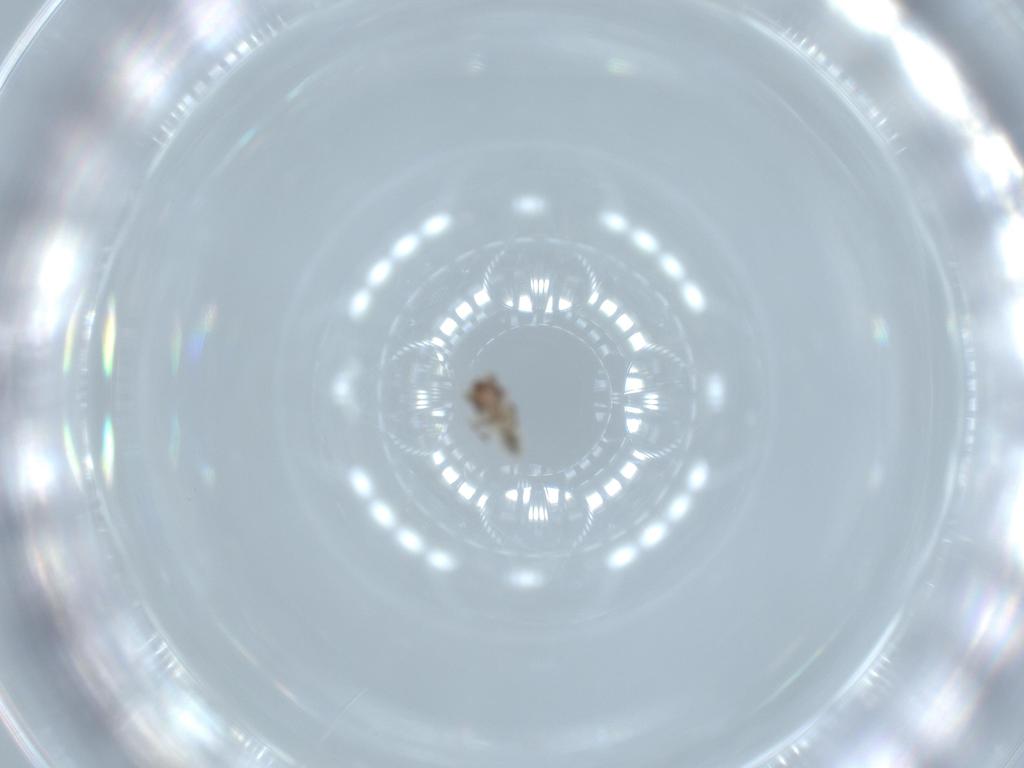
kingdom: Animalia
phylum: Arthropoda
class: Insecta
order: Psocodea
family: Lepidopsocidae
